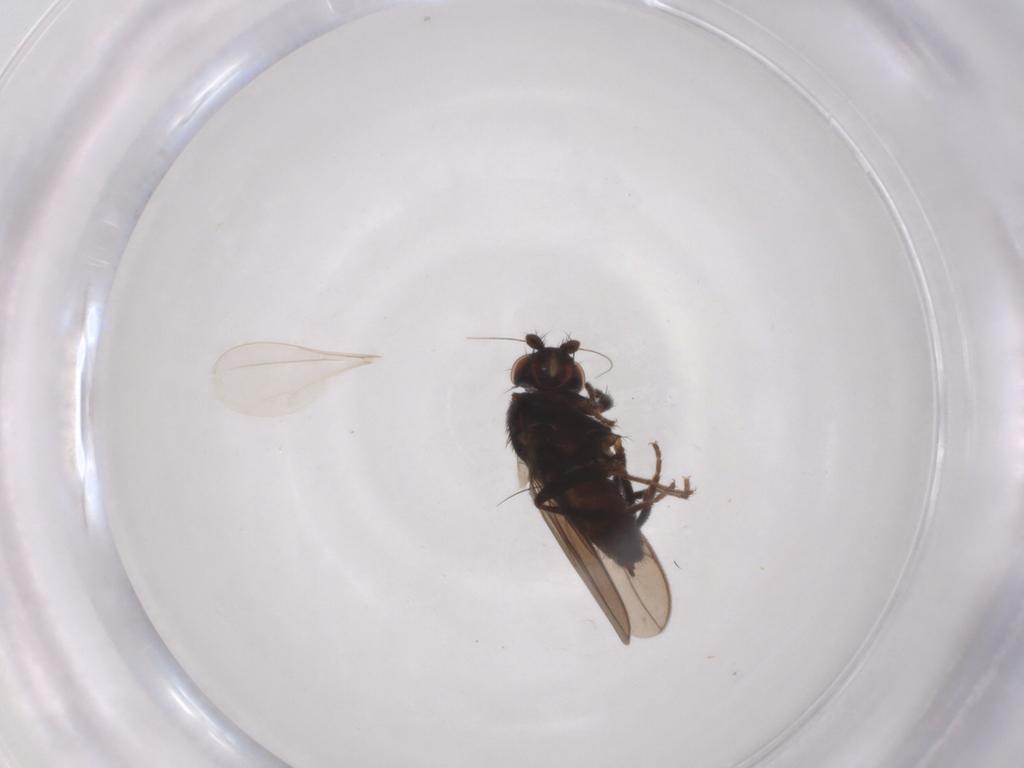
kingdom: Animalia
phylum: Arthropoda
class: Insecta
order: Diptera
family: Sphaeroceridae
